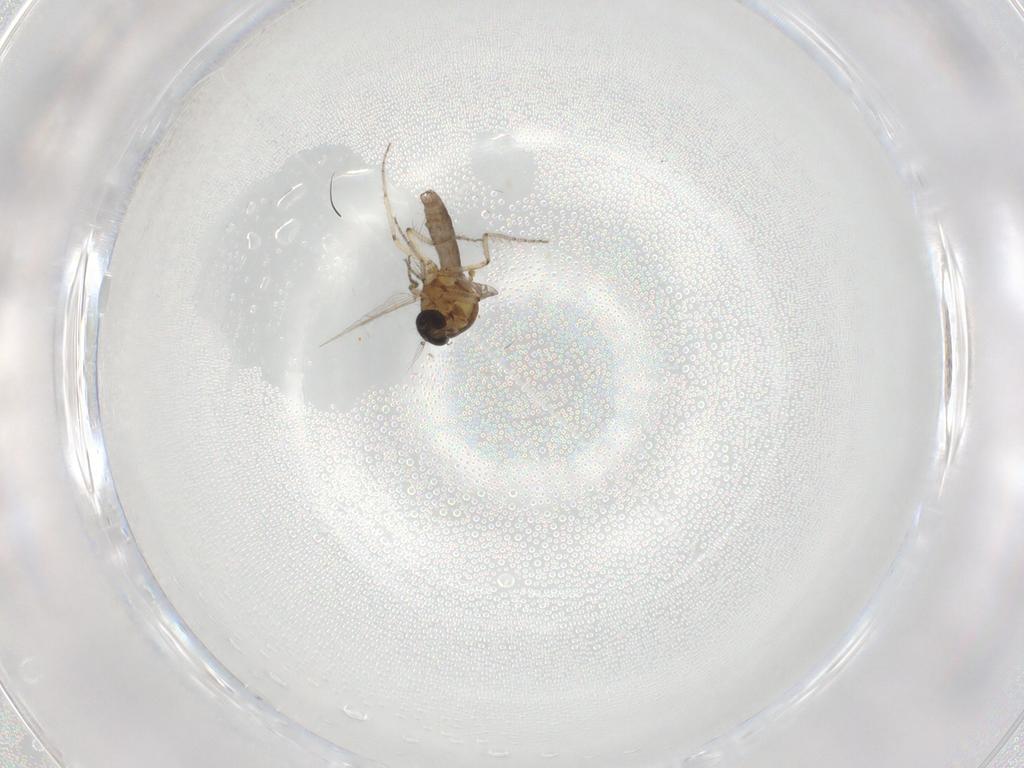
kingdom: Animalia
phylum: Arthropoda
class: Insecta
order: Diptera
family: Ceratopogonidae
